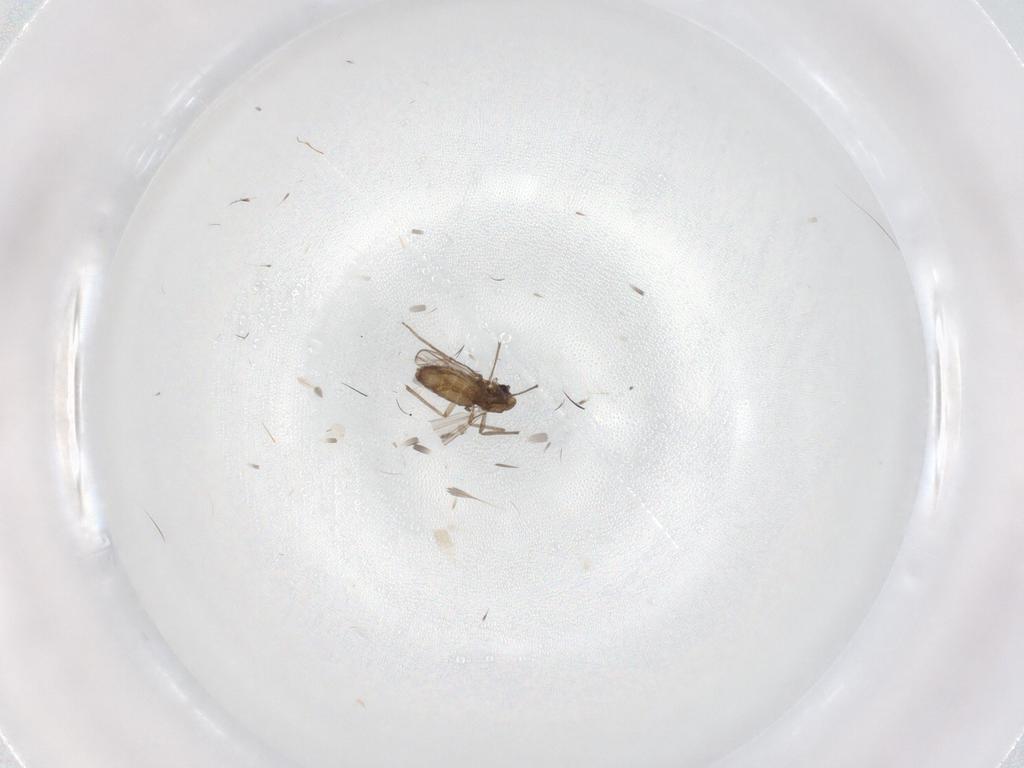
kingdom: Animalia
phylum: Arthropoda
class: Insecta
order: Diptera
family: Chironomidae
